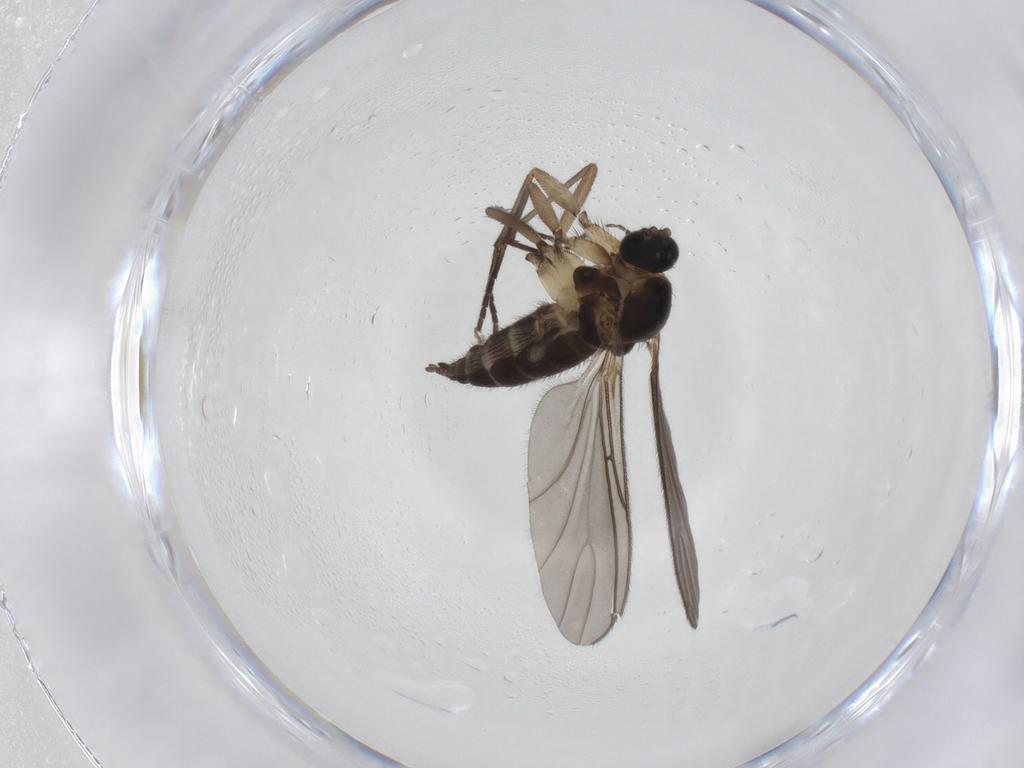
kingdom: Animalia
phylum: Arthropoda
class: Insecta
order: Diptera
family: Sciaridae
